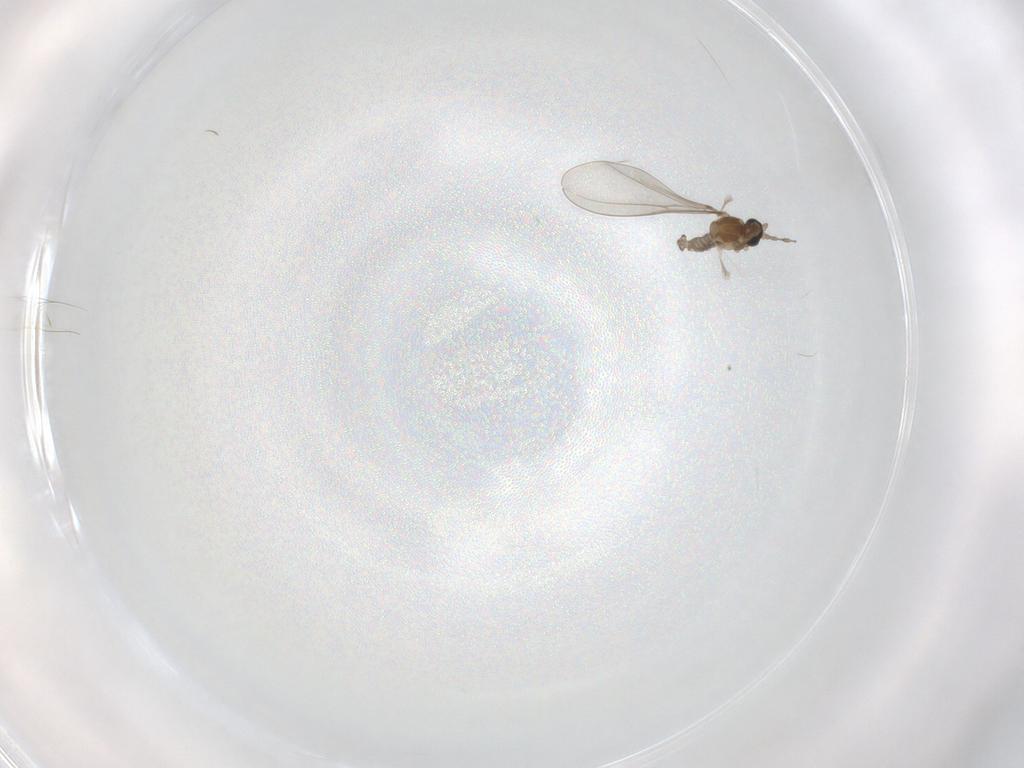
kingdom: Animalia
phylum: Arthropoda
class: Insecta
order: Diptera
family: Cecidomyiidae
